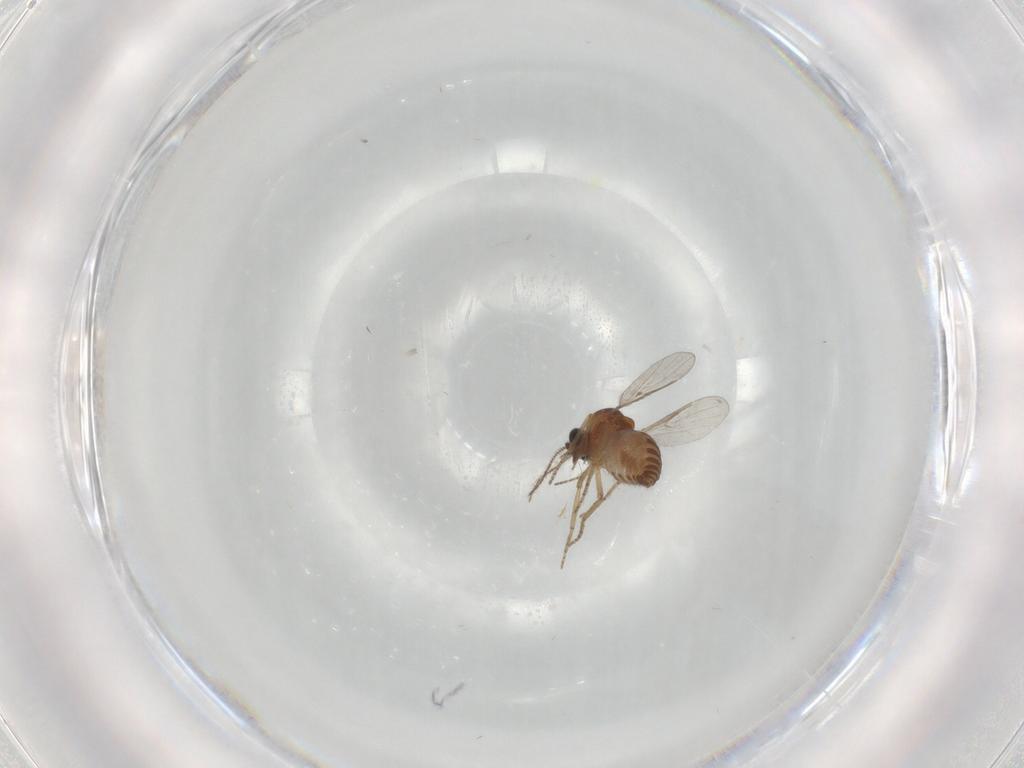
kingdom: Animalia
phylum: Arthropoda
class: Insecta
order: Diptera
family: Ceratopogonidae
